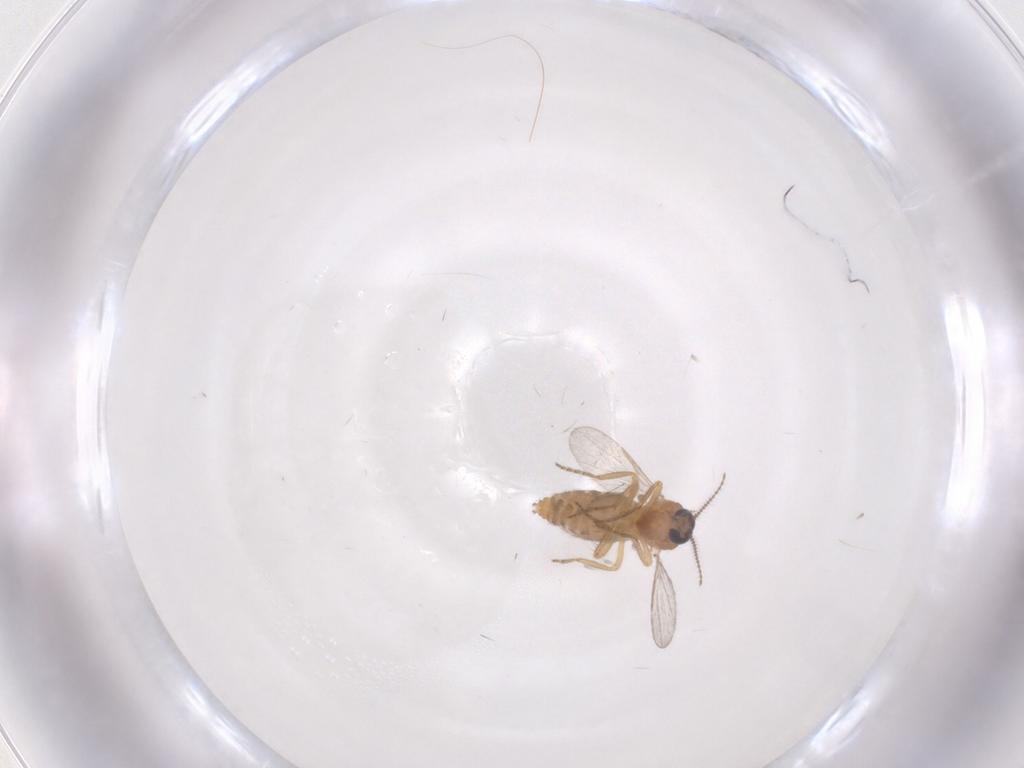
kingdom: Animalia
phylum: Arthropoda
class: Insecta
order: Diptera
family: Ceratopogonidae
